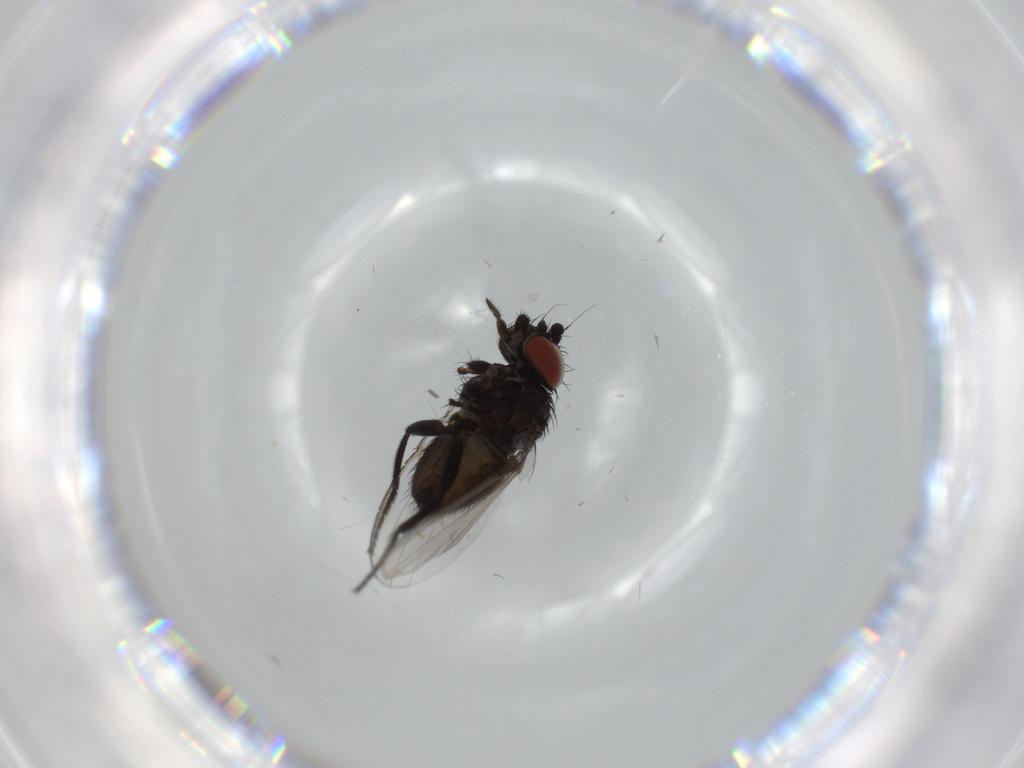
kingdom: Animalia
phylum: Arthropoda
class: Insecta
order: Diptera
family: Milichiidae
